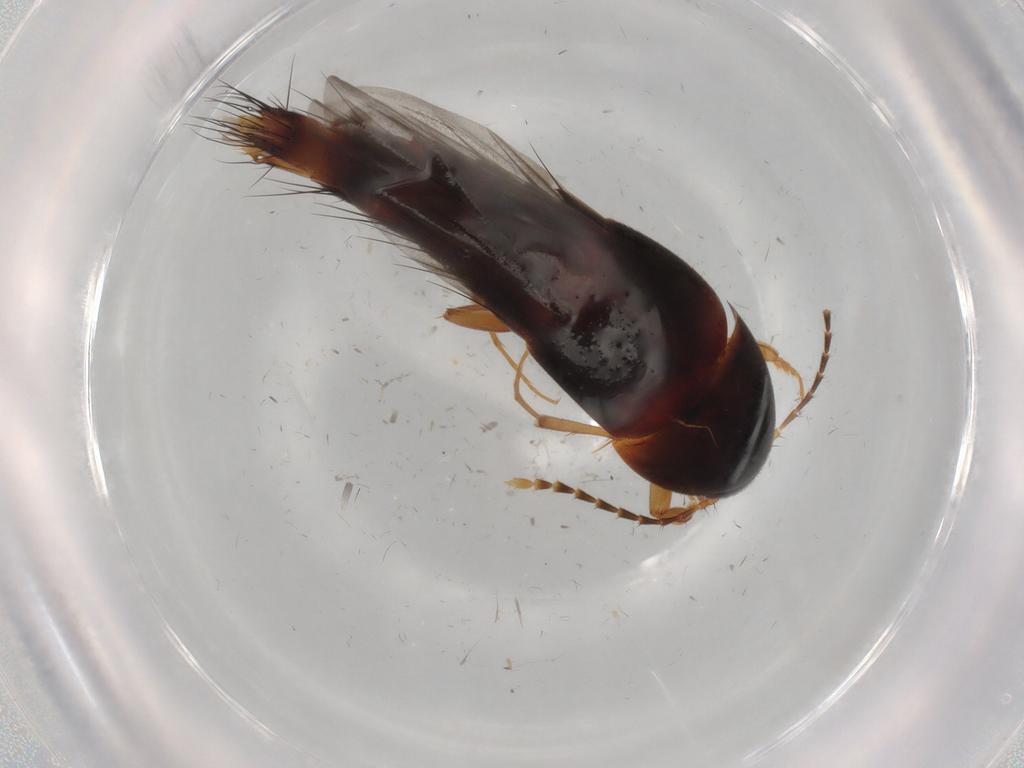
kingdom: Animalia
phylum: Arthropoda
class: Insecta
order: Coleoptera
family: Staphylinidae
